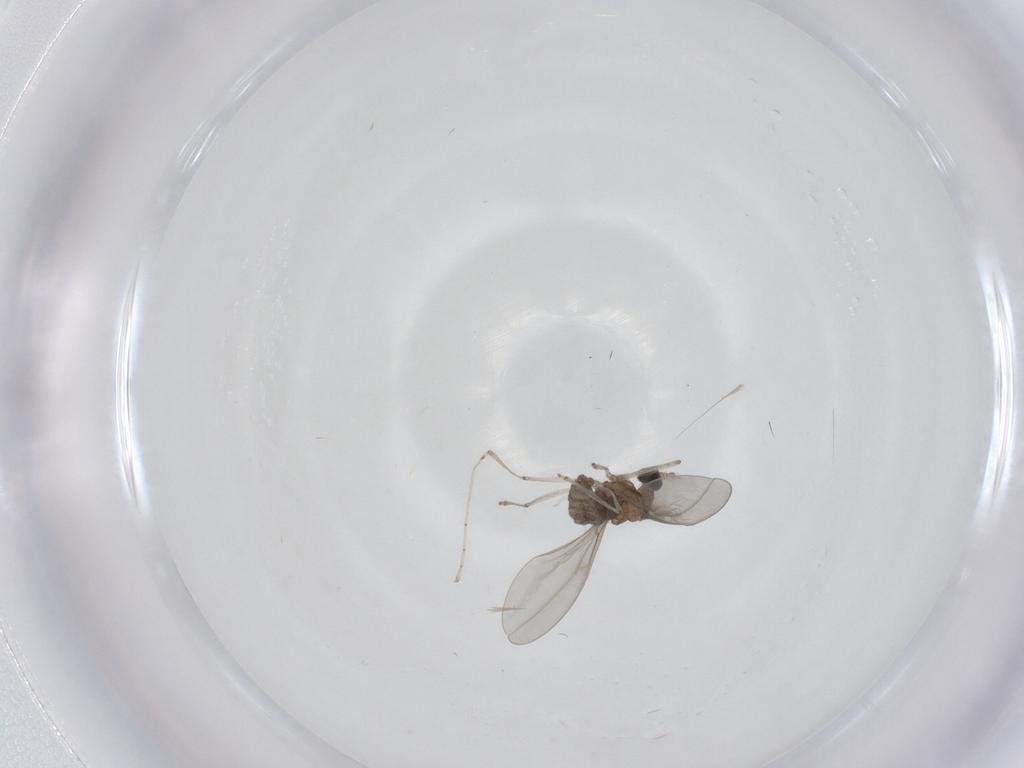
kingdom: Animalia
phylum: Arthropoda
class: Insecta
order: Diptera
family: Cecidomyiidae
